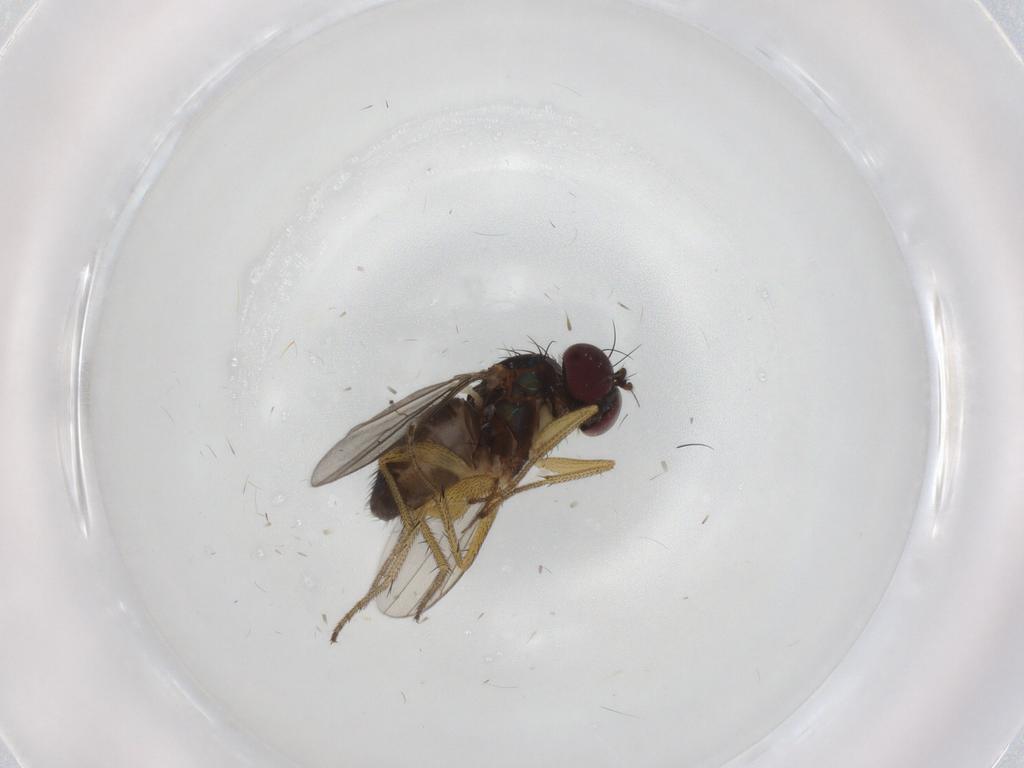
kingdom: Animalia
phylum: Arthropoda
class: Insecta
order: Diptera
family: Dolichopodidae
